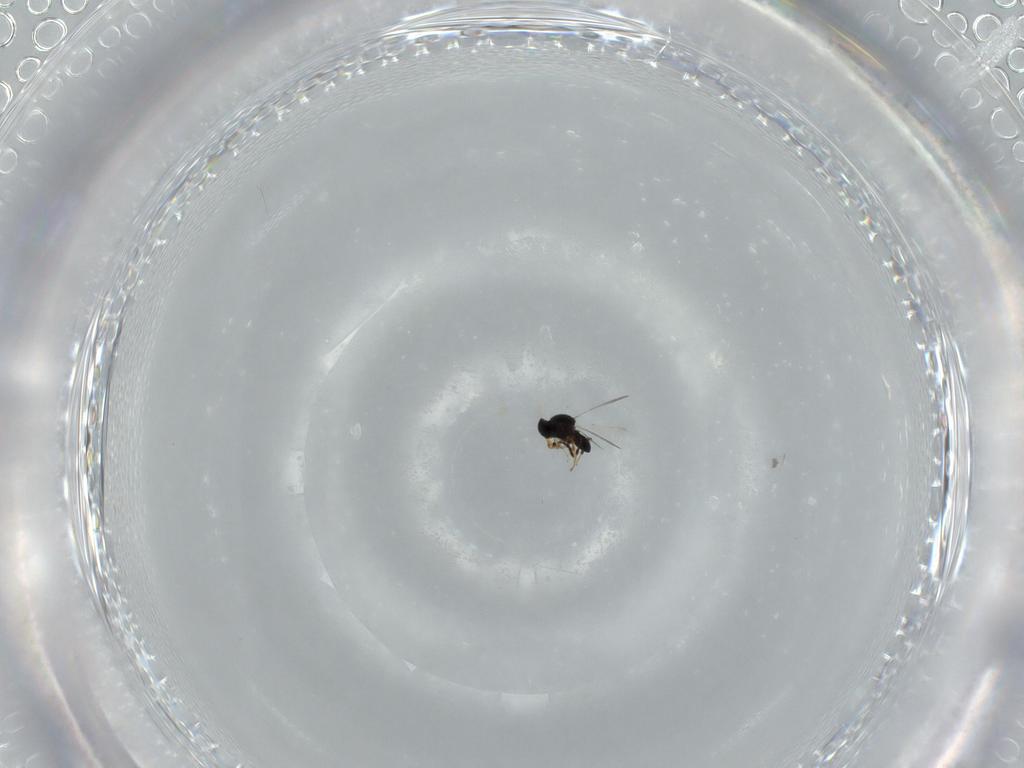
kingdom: Animalia
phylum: Arthropoda
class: Insecta
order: Hymenoptera
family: Platygastridae
